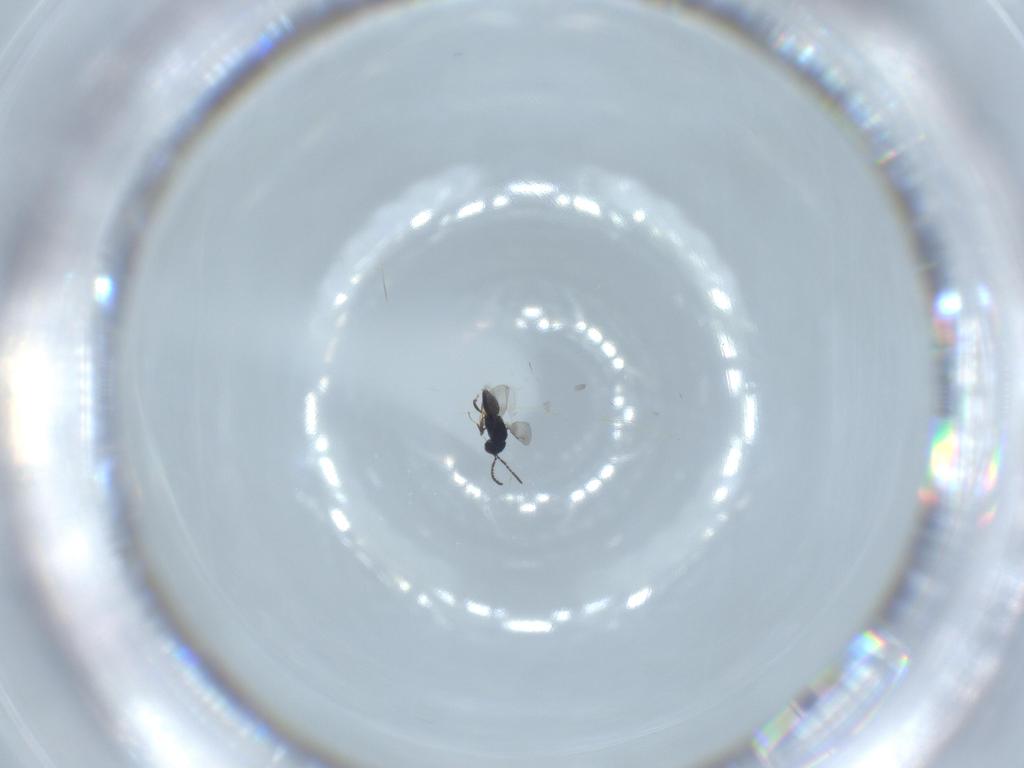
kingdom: Animalia
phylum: Arthropoda
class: Insecta
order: Hymenoptera
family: Ceraphronidae
